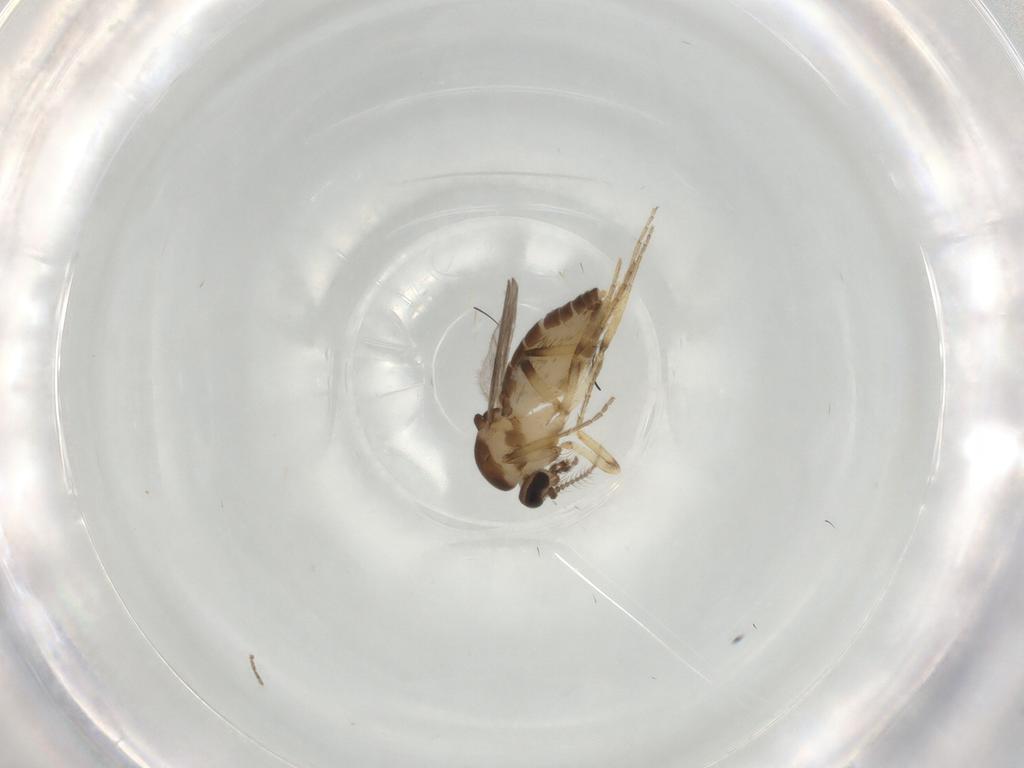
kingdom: Animalia
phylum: Arthropoda
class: Insecta
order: Diptera
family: Ceratopogonidae
